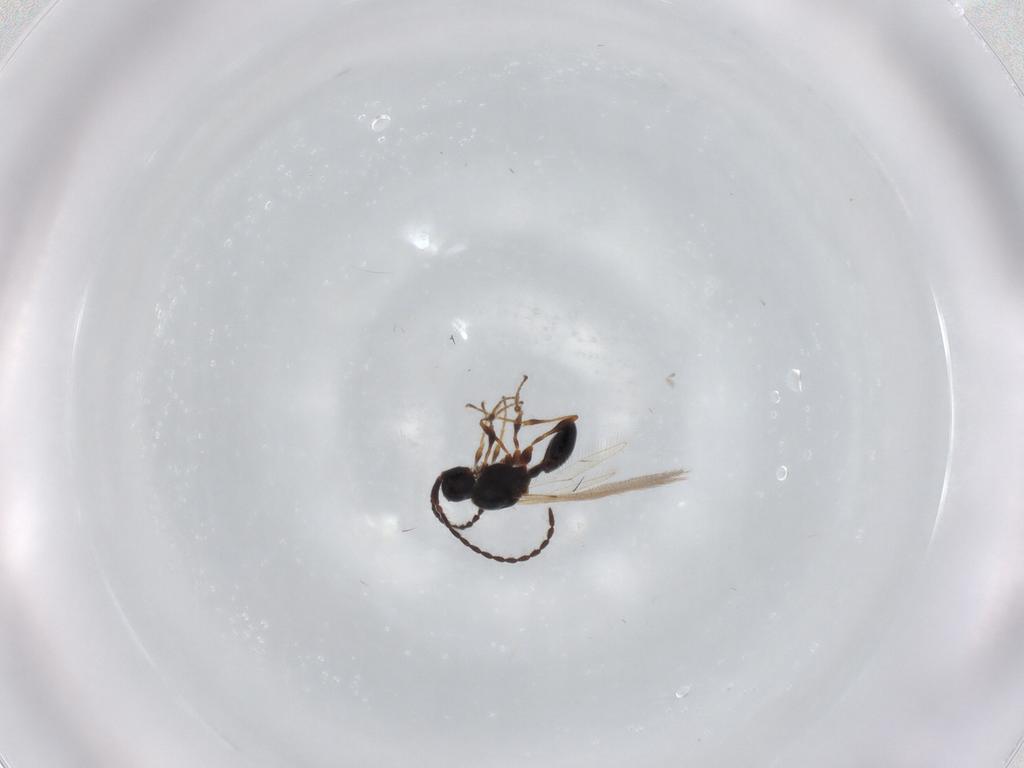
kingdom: Animalia
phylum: Arthropoda
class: Insecta
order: Hymenoptera
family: Diapriidae
